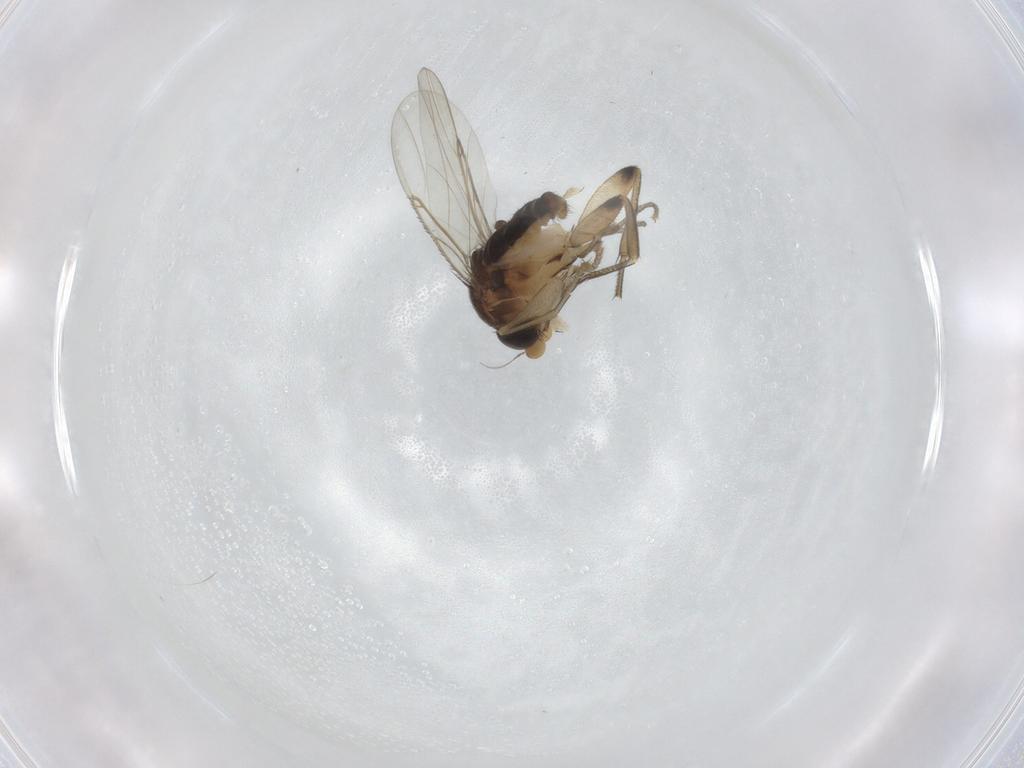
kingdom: Animalia
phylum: Arthropoda
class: Insecta
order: Diptera
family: Phoridae
